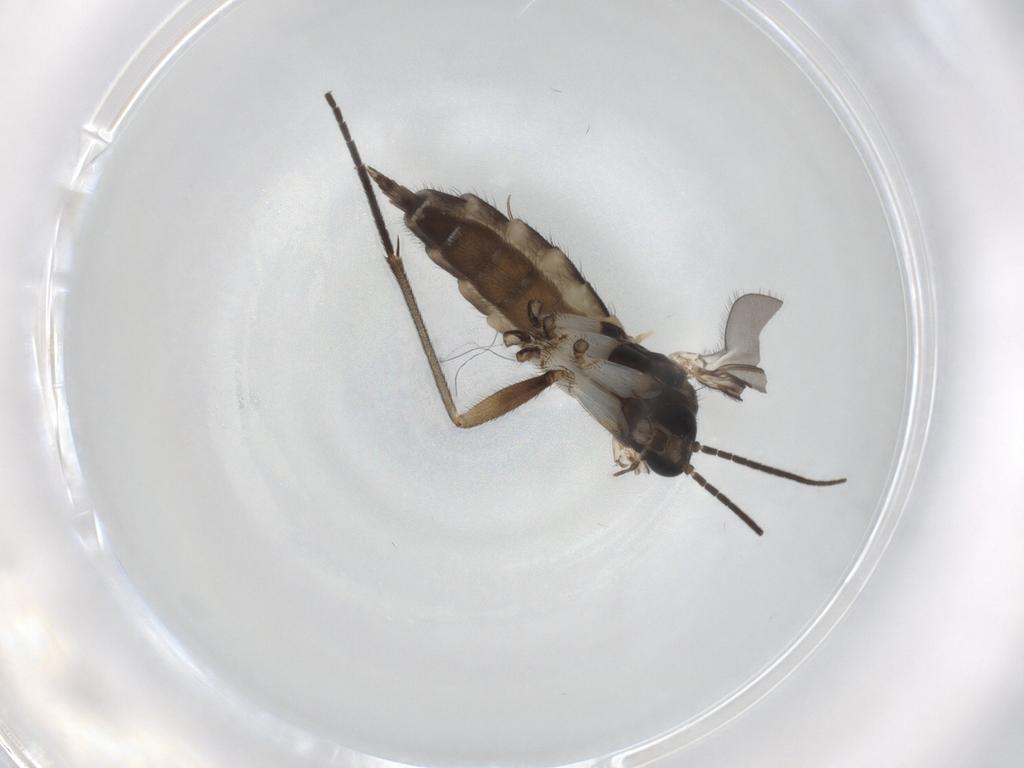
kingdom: Animalia
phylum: Arthropoda
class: Insecta
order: Diptera
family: Sciaridae
